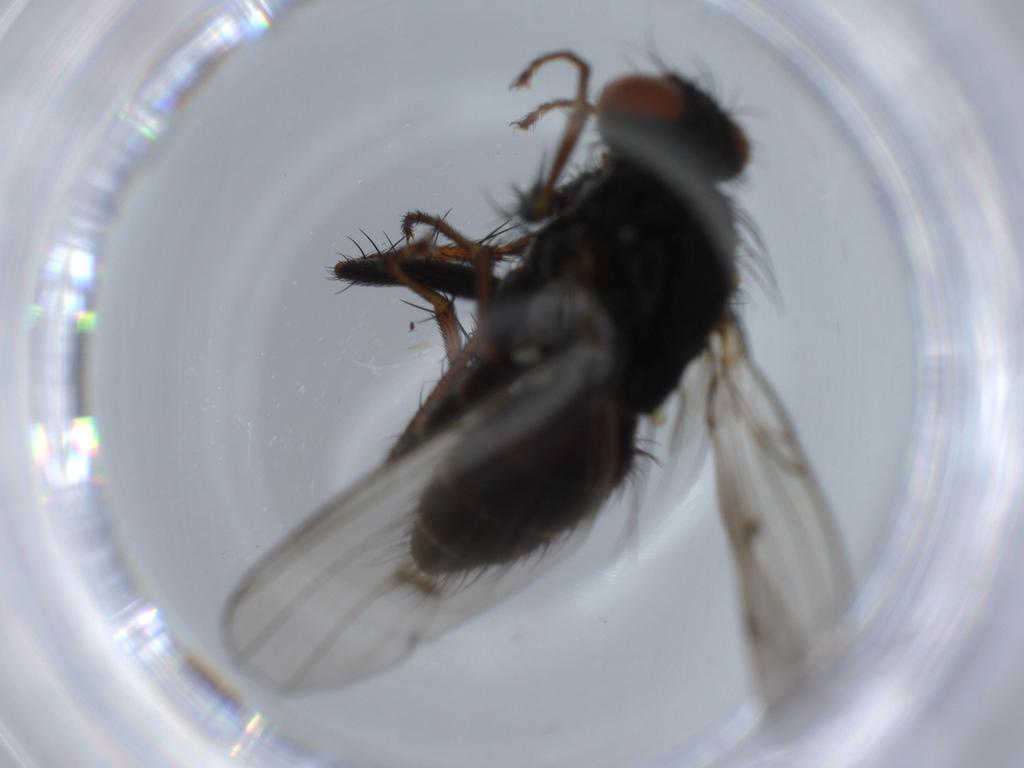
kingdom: Animalia
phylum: Arthropoda
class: Insecta
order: Diptera
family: Muscidae
